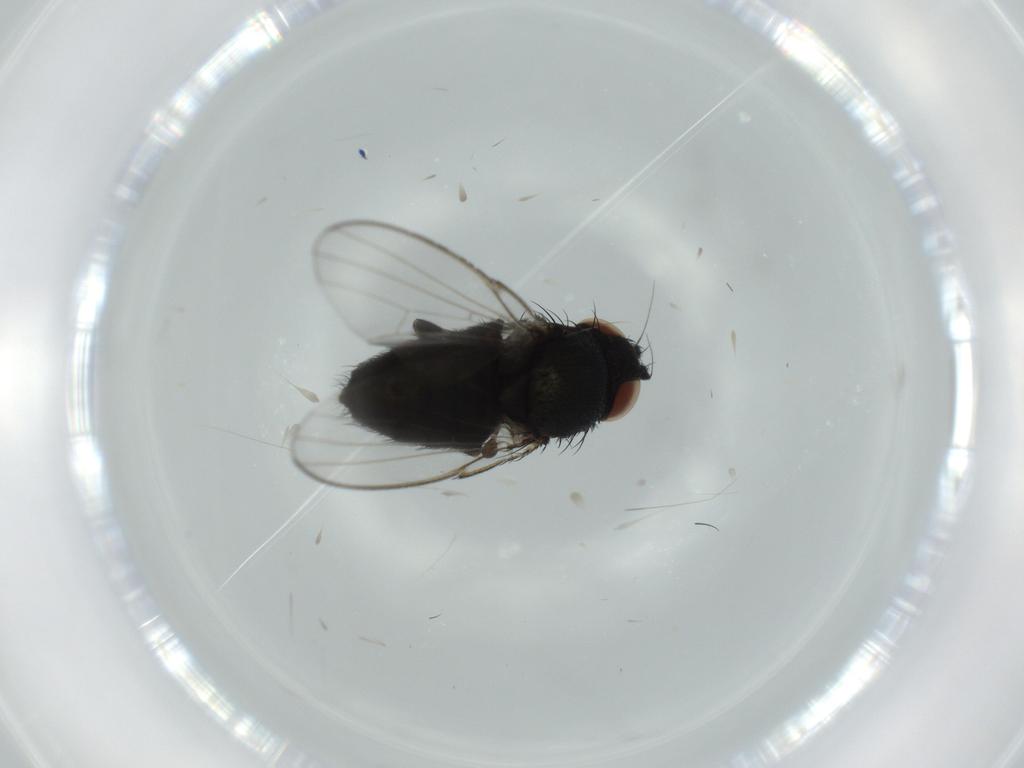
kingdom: Animalia
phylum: Arthropoda
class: Insecta
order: Diptera
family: Milichiidae
